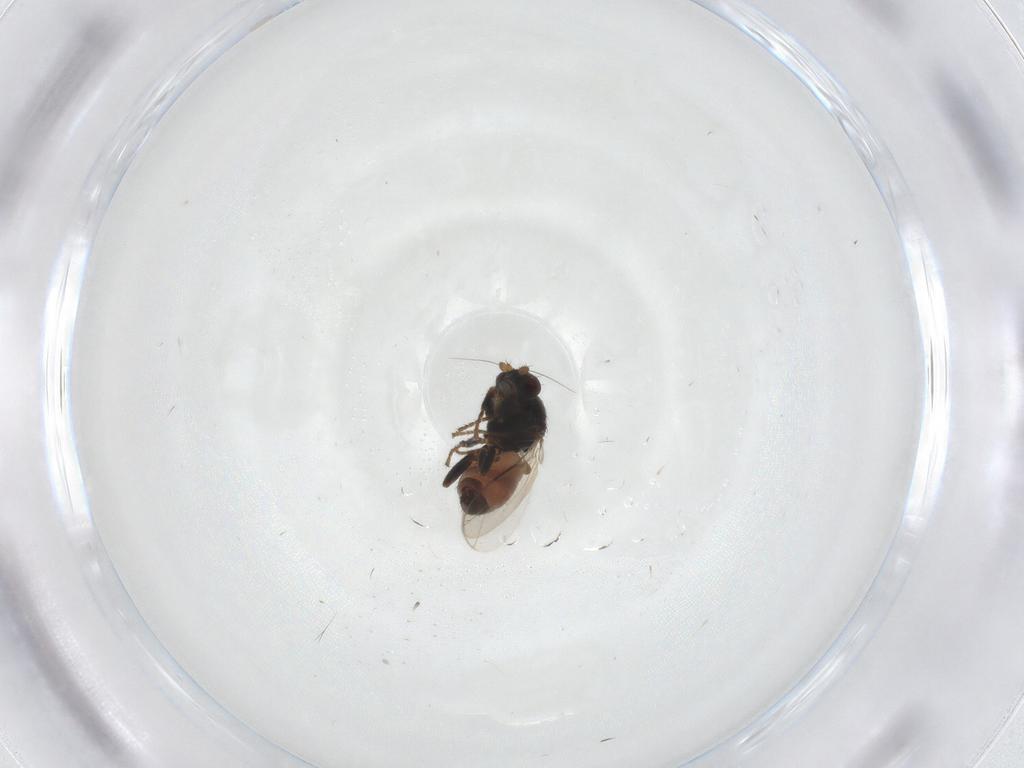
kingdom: Animalia
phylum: Arthropoda
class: Insecta
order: Diptera
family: Sphaeroceridae
